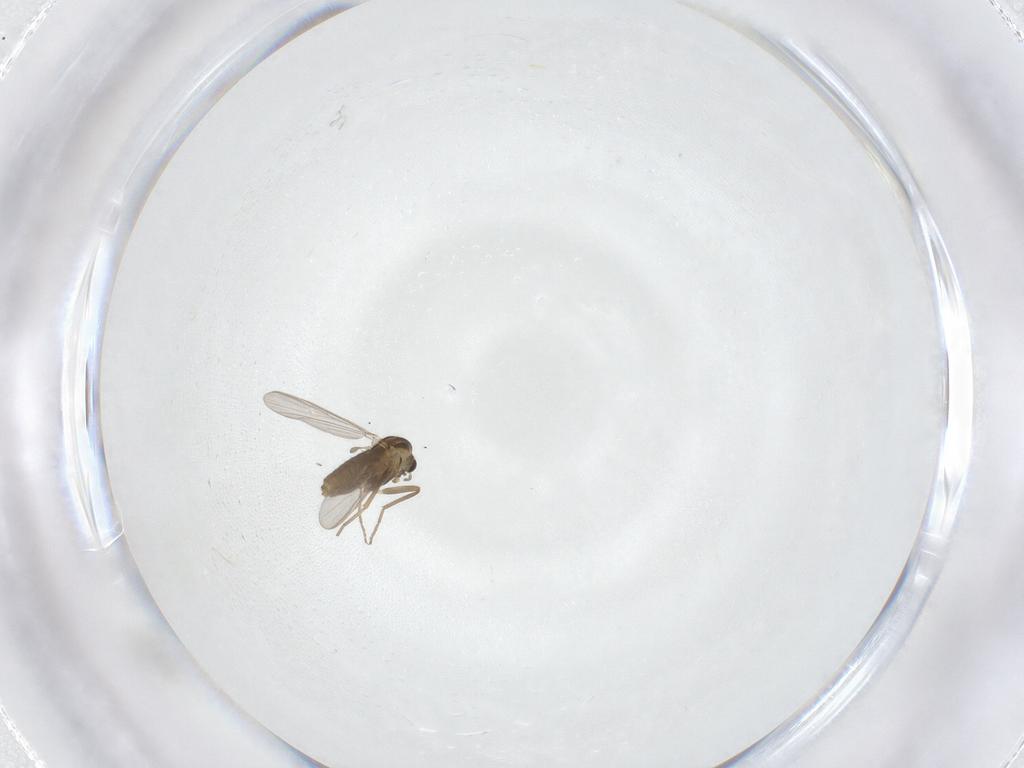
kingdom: Animalia
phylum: Arthropoda
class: Insecta
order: Diptera
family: Chironomidae
